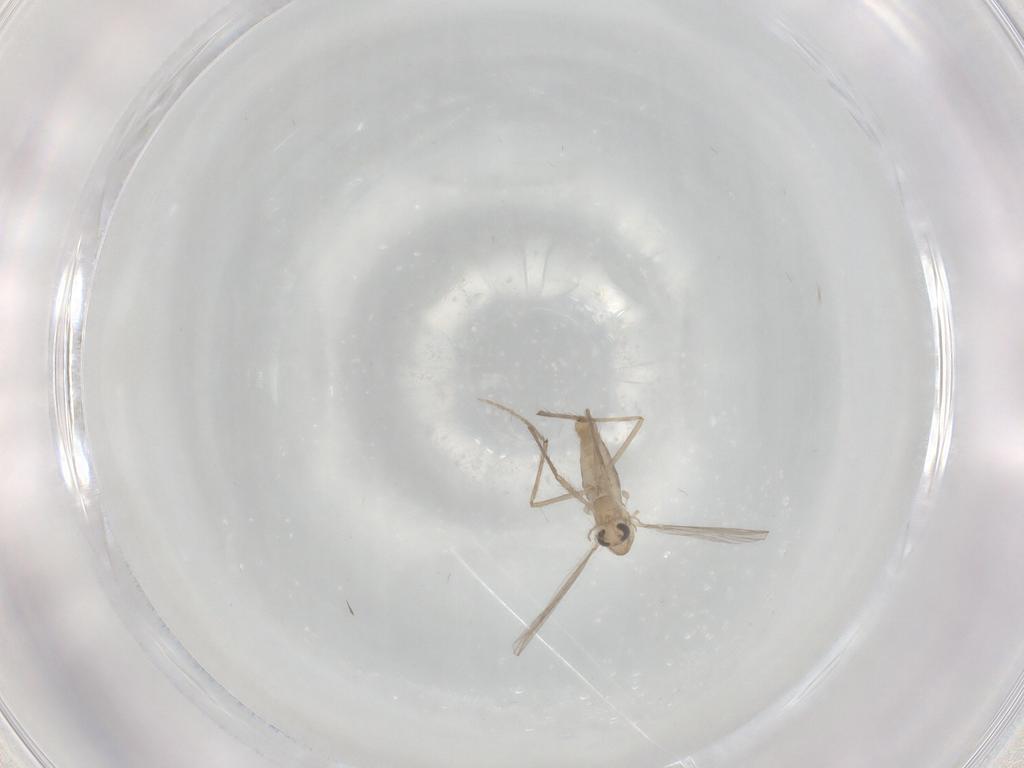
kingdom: Animalia
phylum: Arthropoda
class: Insecta
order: Diptera
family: Chironomidae
